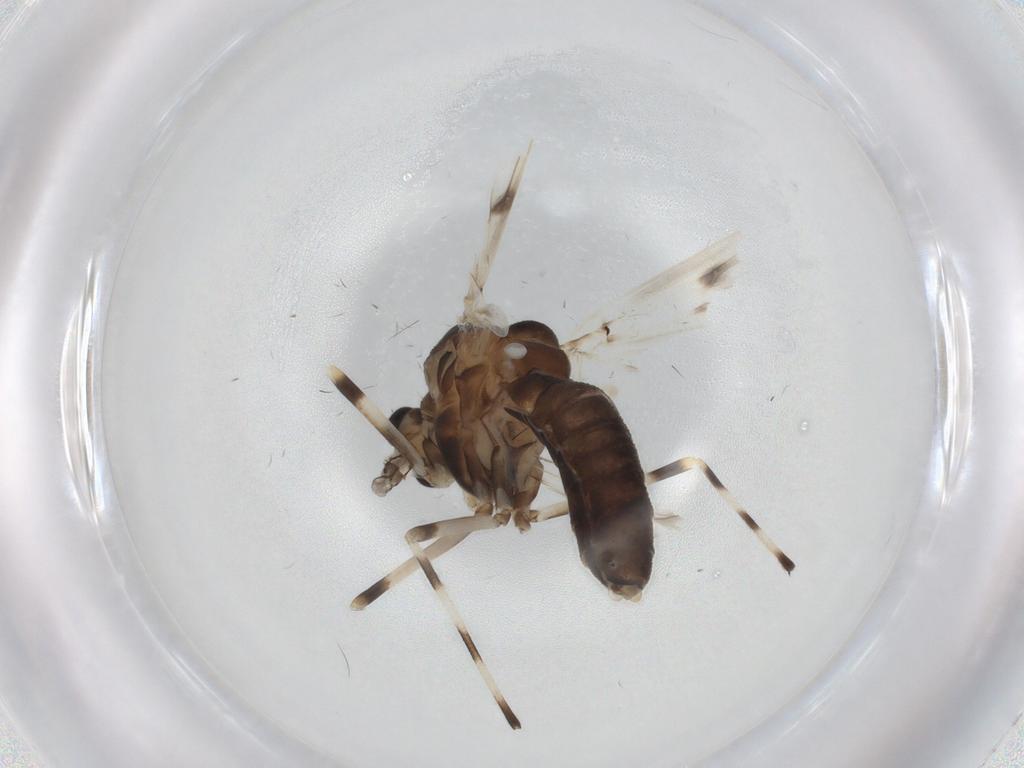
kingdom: Animalia
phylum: Arthropoda
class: Insecta
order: Diptera
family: Chironomidae
